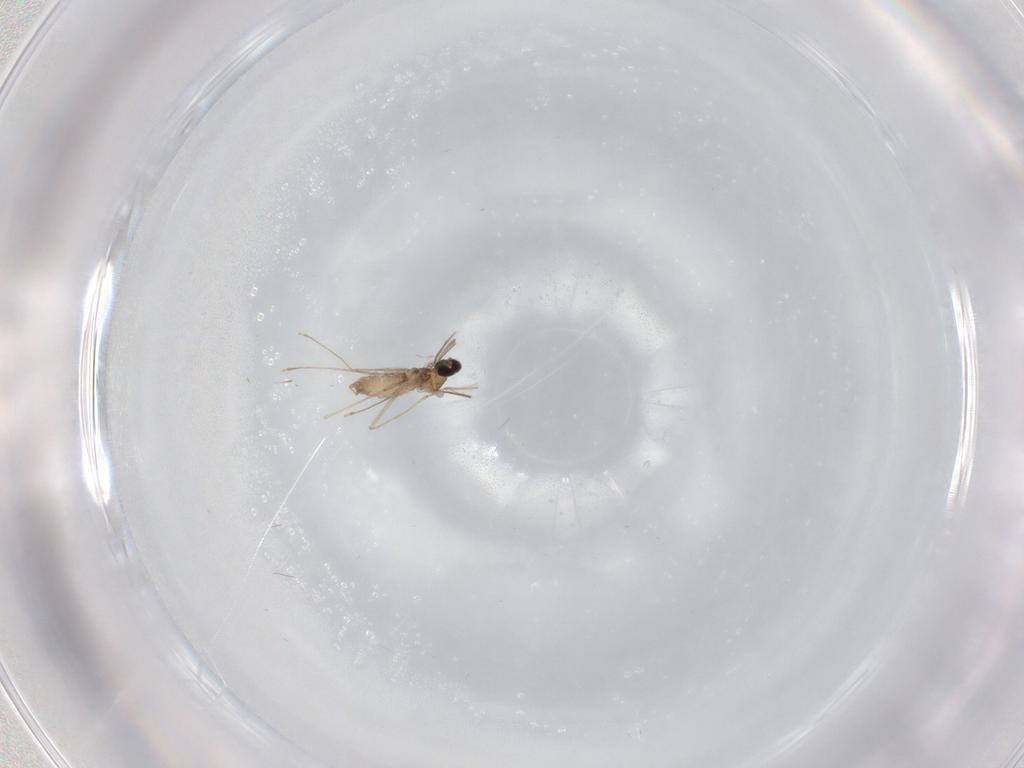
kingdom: Animalia
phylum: Arthropoda
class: Insecta
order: Diptera
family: Cecidomyiidae
